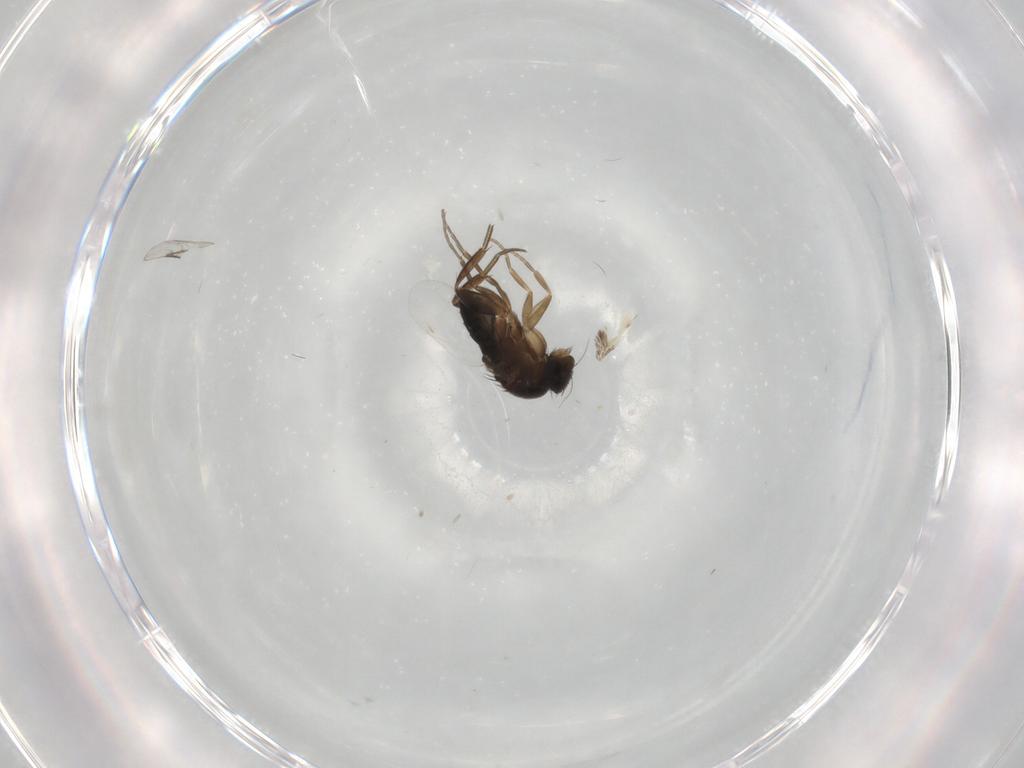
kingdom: Animalia
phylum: Arthropoda
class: Insecta
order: Diptera
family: Phoridae
